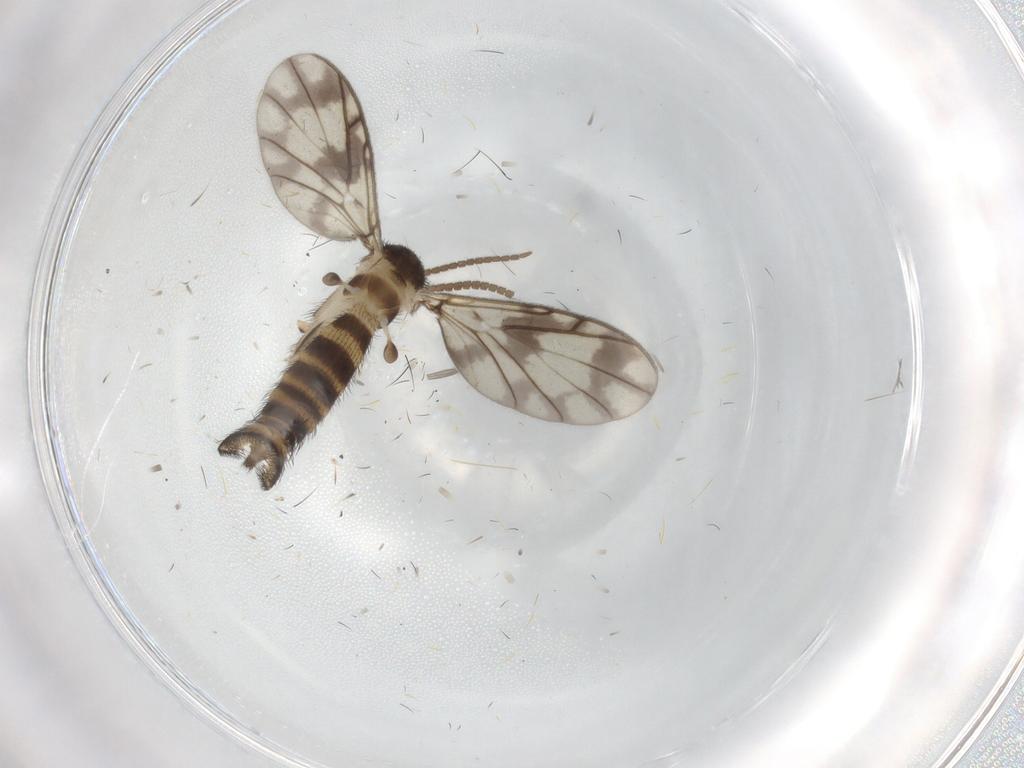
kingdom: Animalia
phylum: Arthropoda
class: Insecta
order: Diptera
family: Keroplatidae
